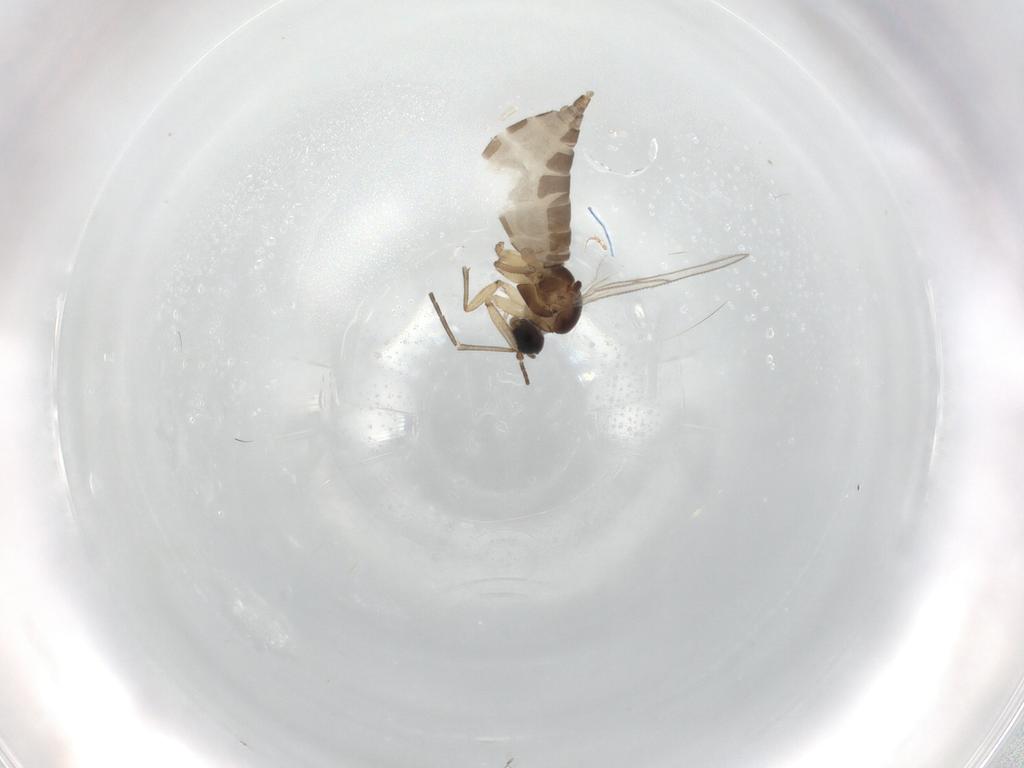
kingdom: Animalia
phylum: Arthropoda
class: Insecta
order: Diptera
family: Sciaridae
